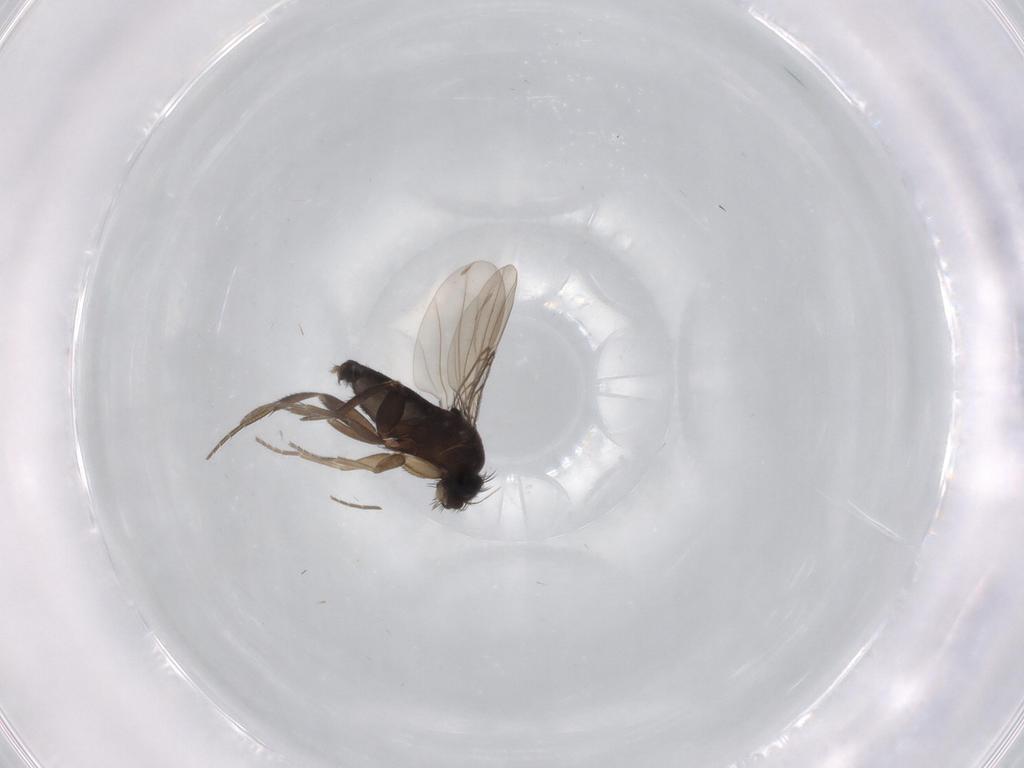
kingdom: Animalia
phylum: Arthropoda
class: Insecta
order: Diptera
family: Phoridae
